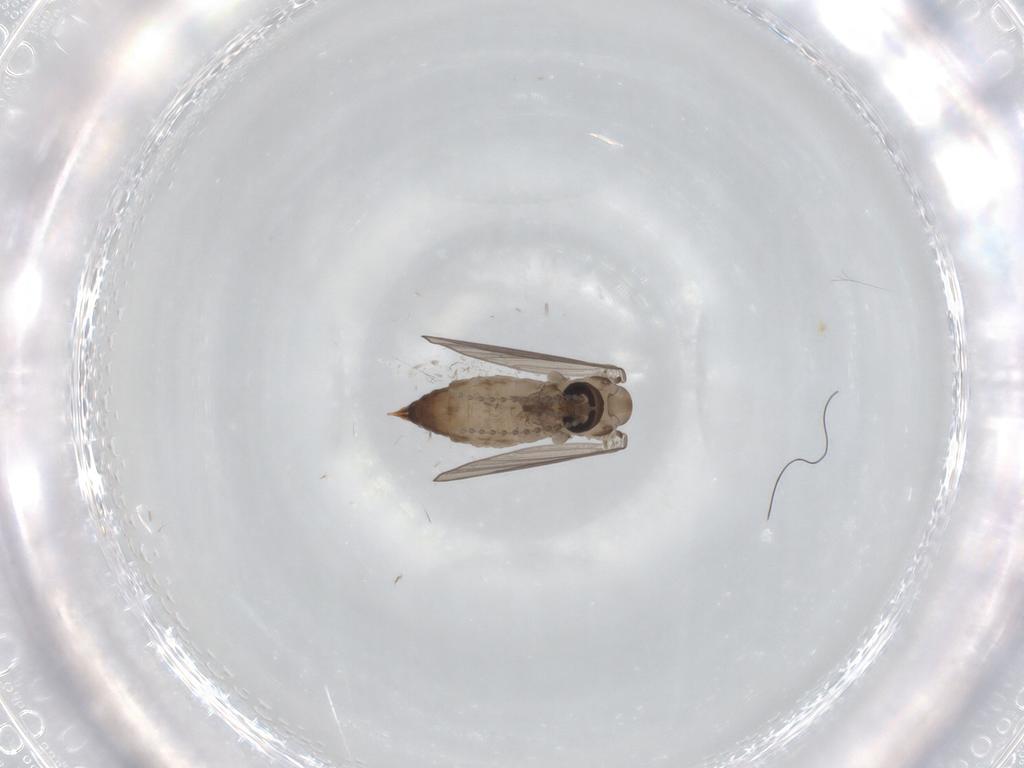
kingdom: Animalia
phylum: Arthropoda
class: Insecta
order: Diptera
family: Psychodidae
